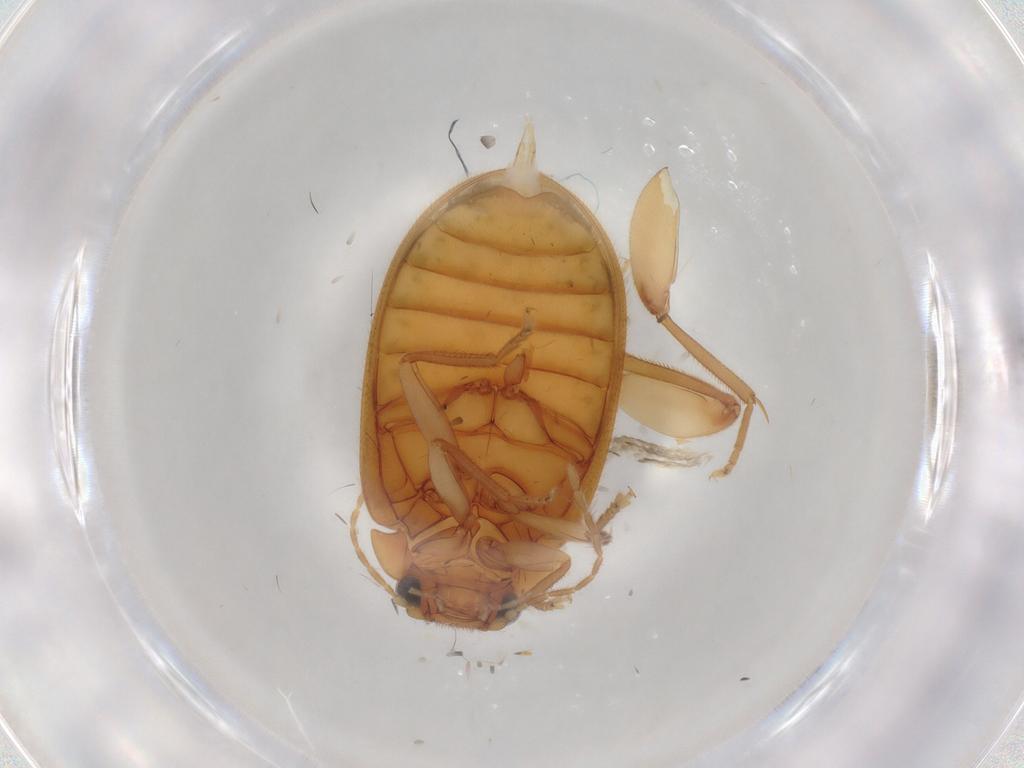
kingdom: Animalia
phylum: Arthropoda
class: Insecta
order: Coleoptera
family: Scirtidae
